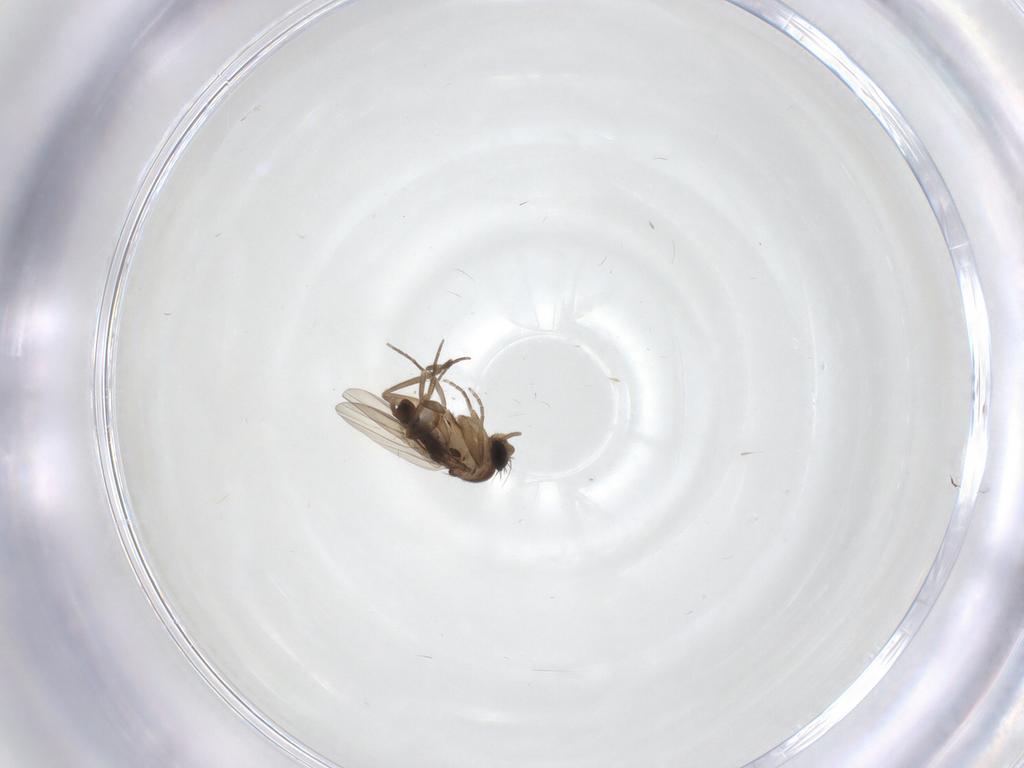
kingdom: Animalia
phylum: Arthropoda
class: Insecta
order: Diptera
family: Phoridae
